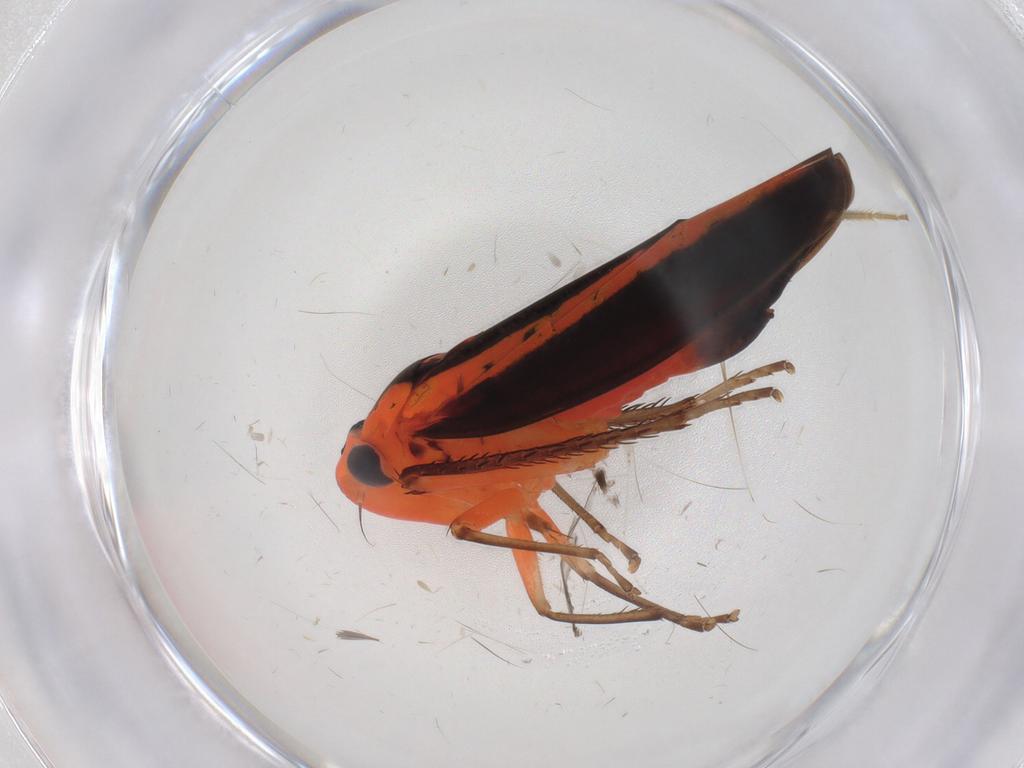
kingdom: Animalia
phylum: Arthropoda
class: Insecta
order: Hemiptera
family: Cicadellidae
